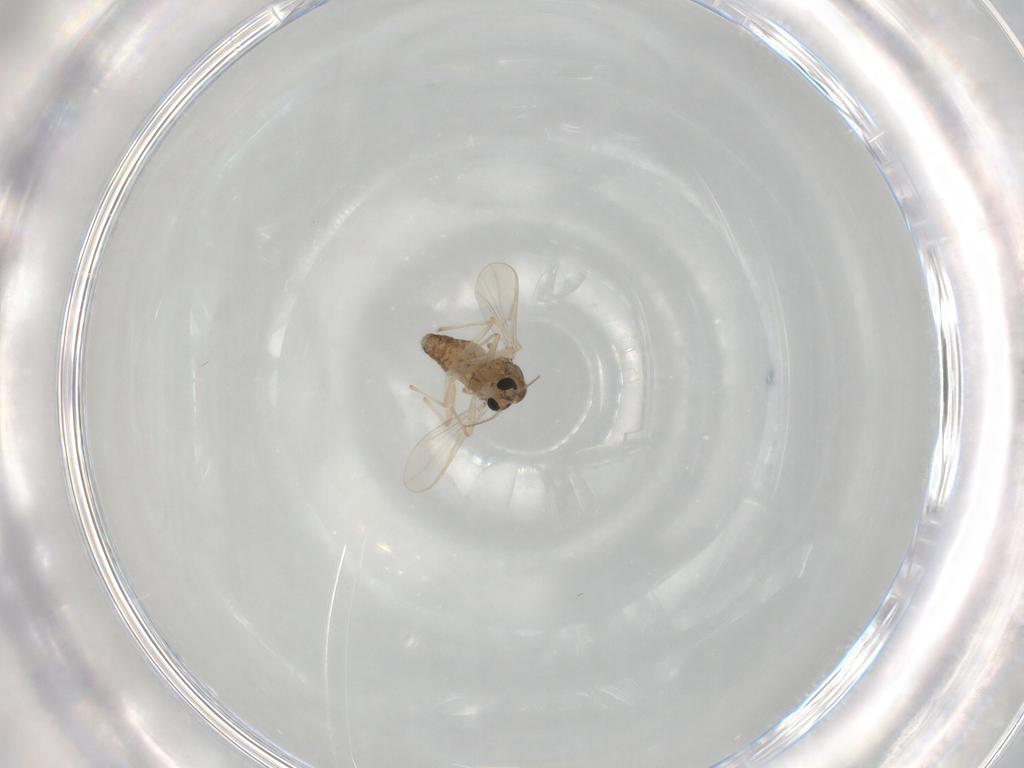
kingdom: Animalia
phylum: Arthropoda
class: Insecta
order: Diptera
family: Chironomidae
